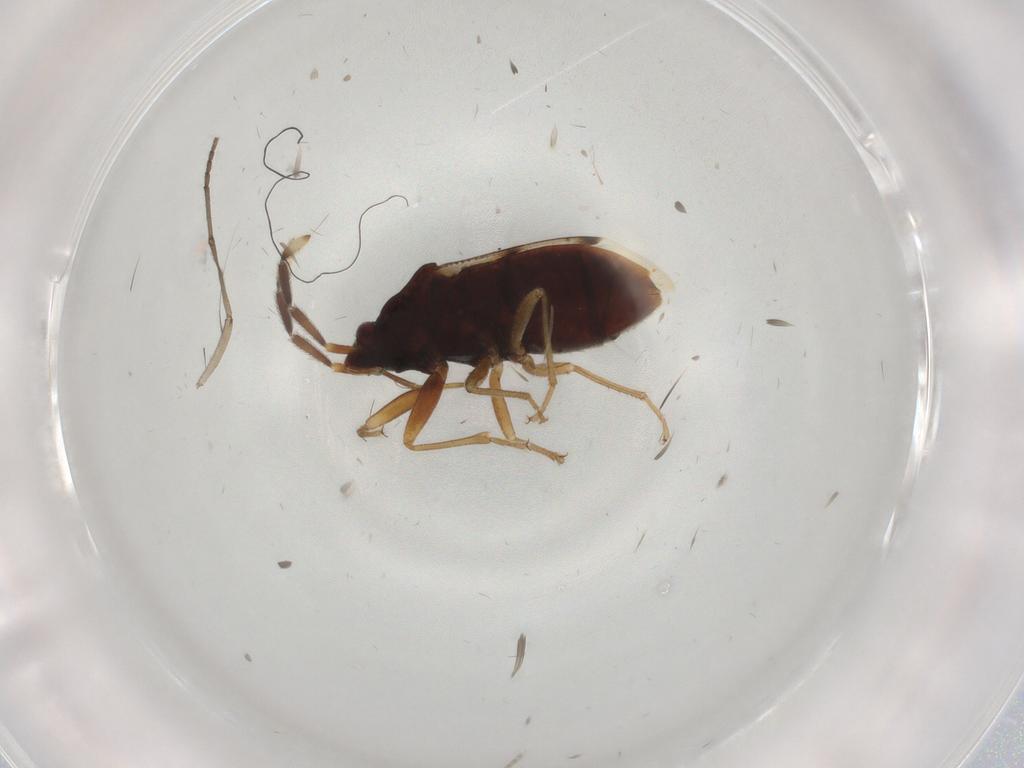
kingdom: Animalia
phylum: Arthropoda
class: Insecta
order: Hemiptera
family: Rhyparochromidae
